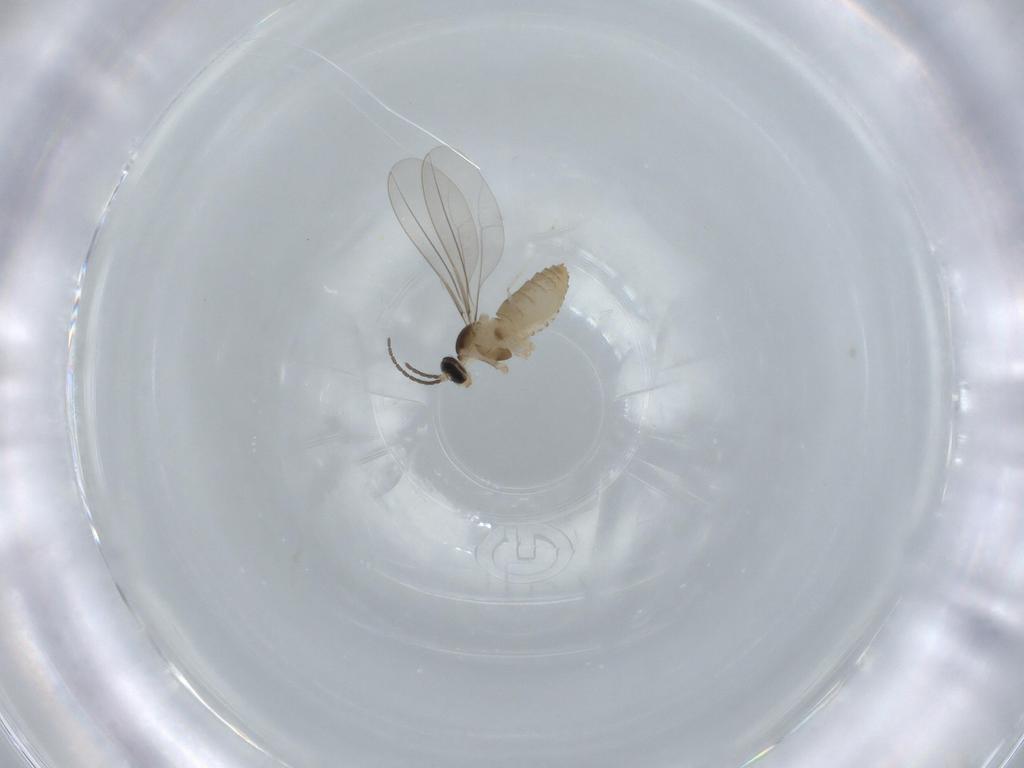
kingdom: Animalia
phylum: Arthropoda
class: Insecta
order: Diptera
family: Cecidomyiidae
